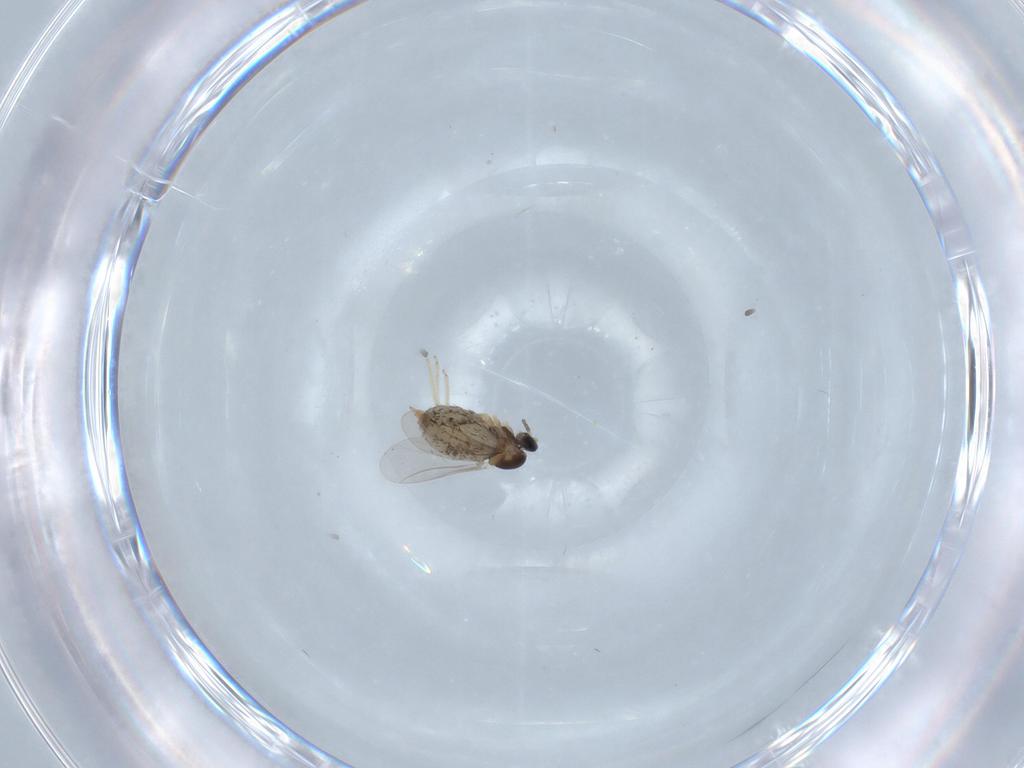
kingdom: Animalia
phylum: Arthropoda
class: Insecta
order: Diptera
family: Cecidomyiidae
